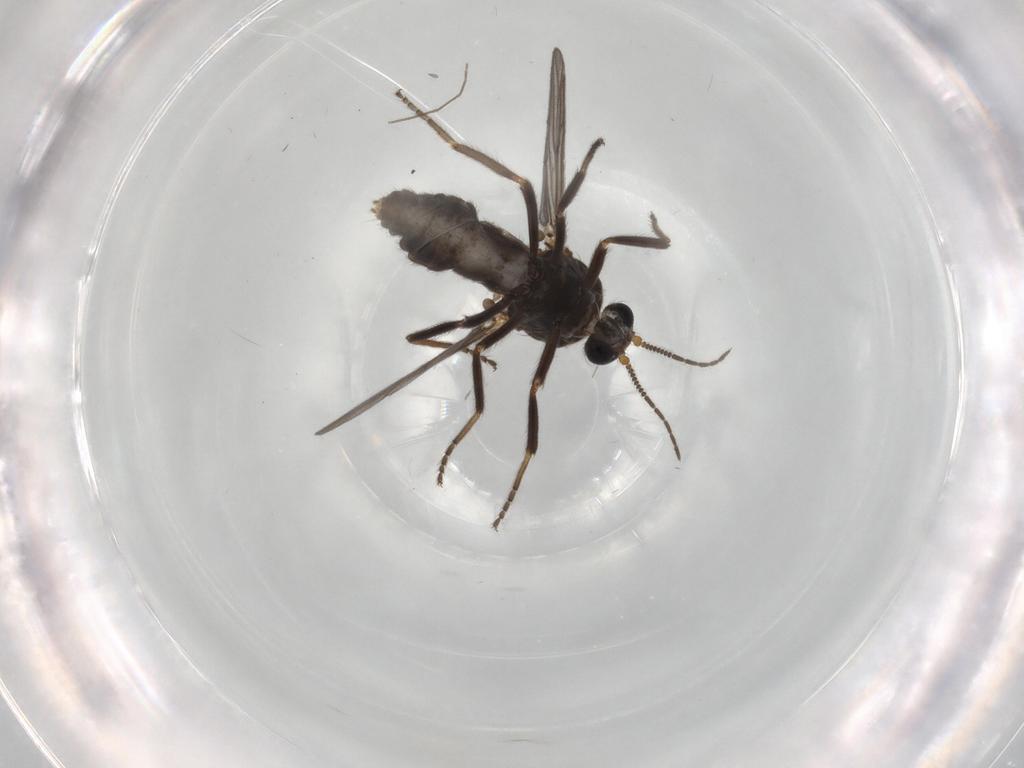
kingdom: Animalia
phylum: Arthropoda
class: Insecta
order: Diptera
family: Ceratopogonidae
